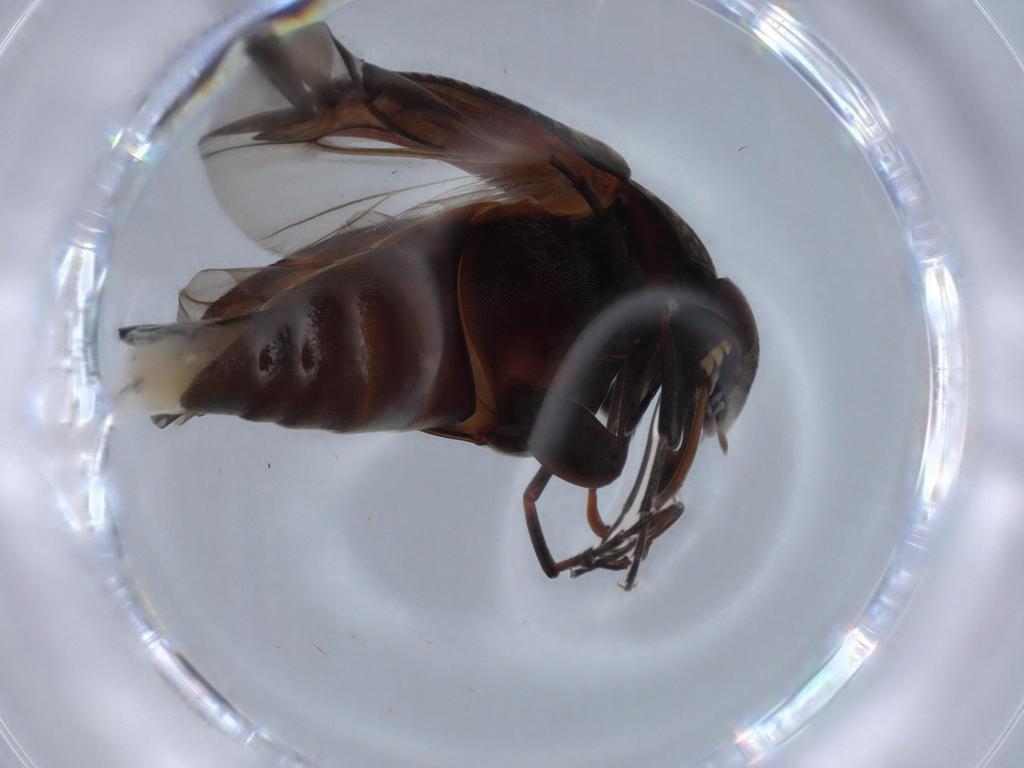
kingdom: Animalia
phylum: Arthropoda
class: Insecta
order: Coleoptera
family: Mordellidae
